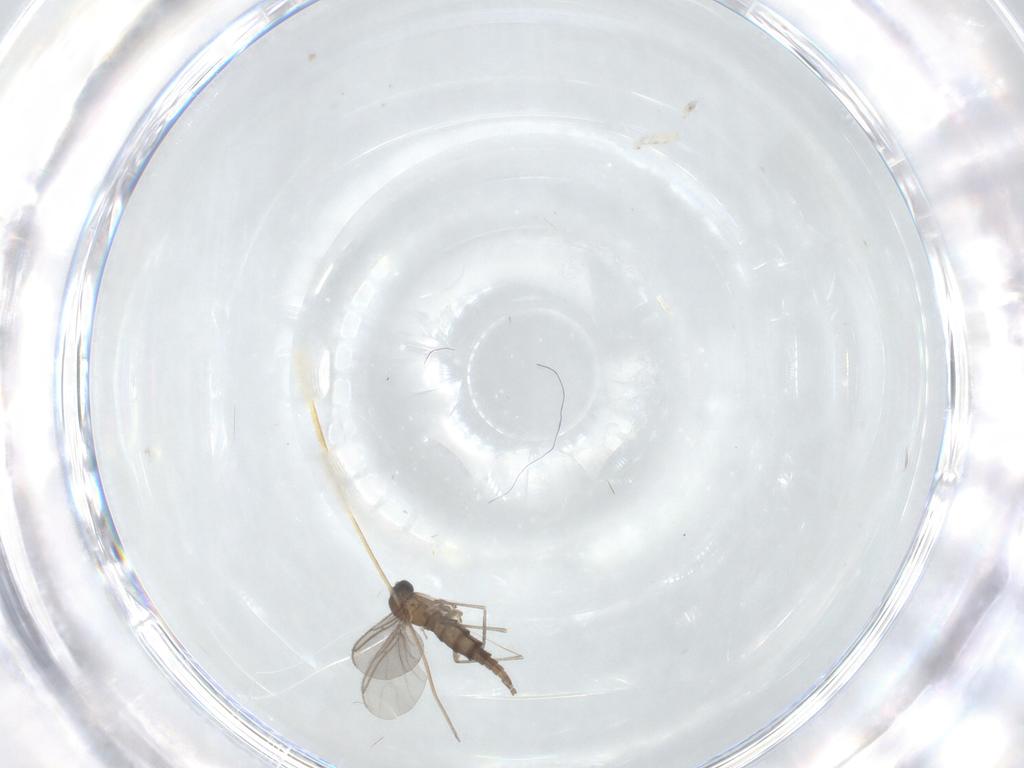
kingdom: Animalia
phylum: Arthropoda
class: Insecta
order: Diptera
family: Sciaridae
